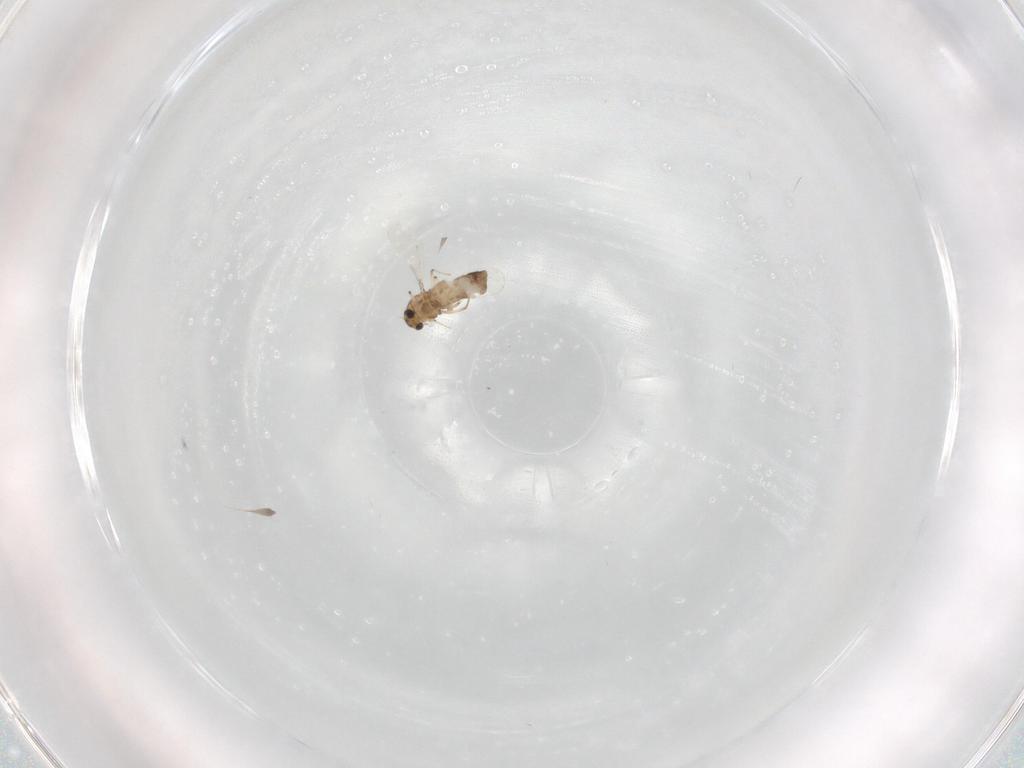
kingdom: Animalia
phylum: Arthropoda
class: Insecta
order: Diptera
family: Chironomidae
